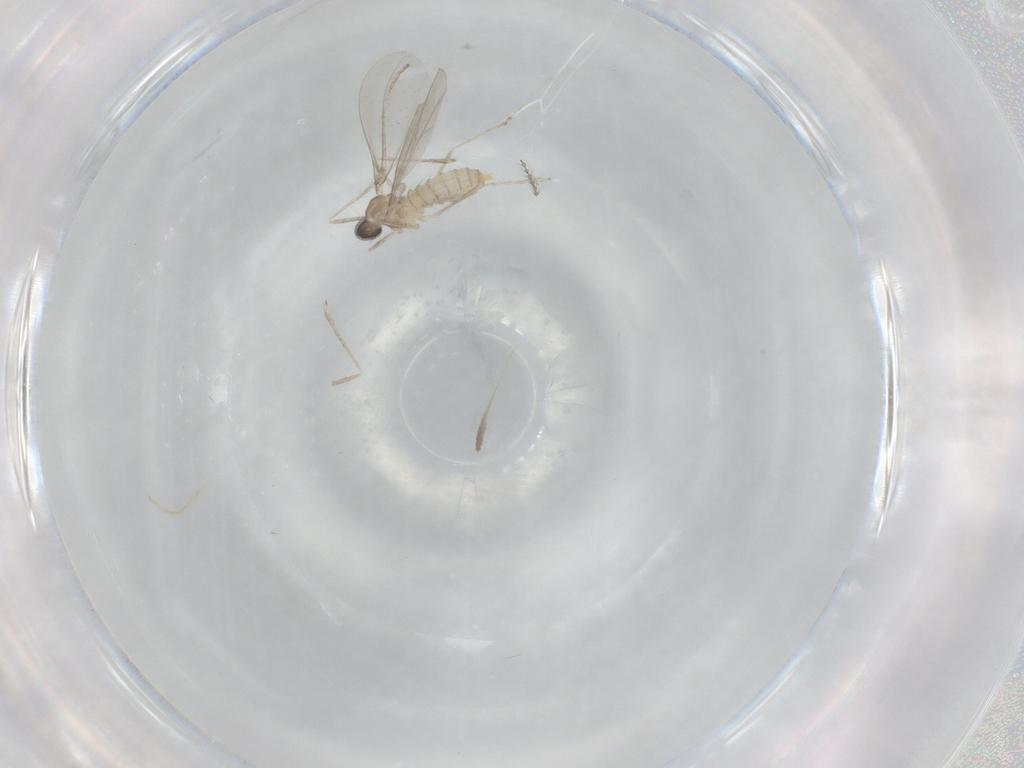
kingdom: Animalia
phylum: Arthropoda
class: Insecta
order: Diptera
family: Cecidomyiidae
